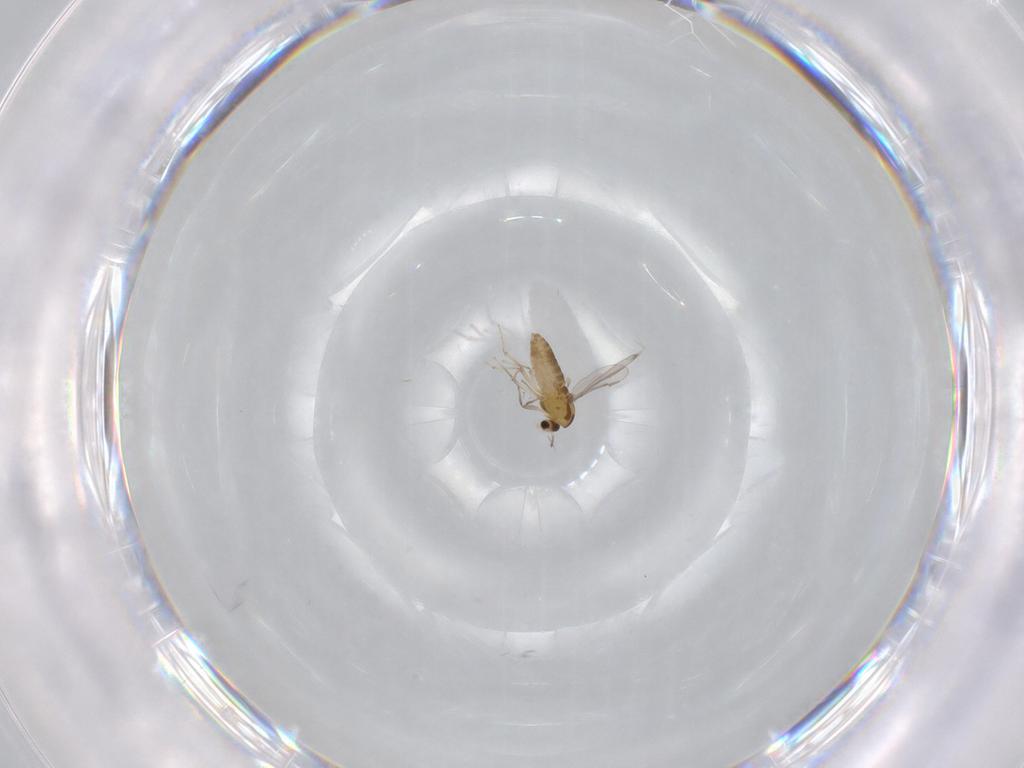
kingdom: Animalia
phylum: Arthropoda
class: Insecta
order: Diptera
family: Chironomidae
